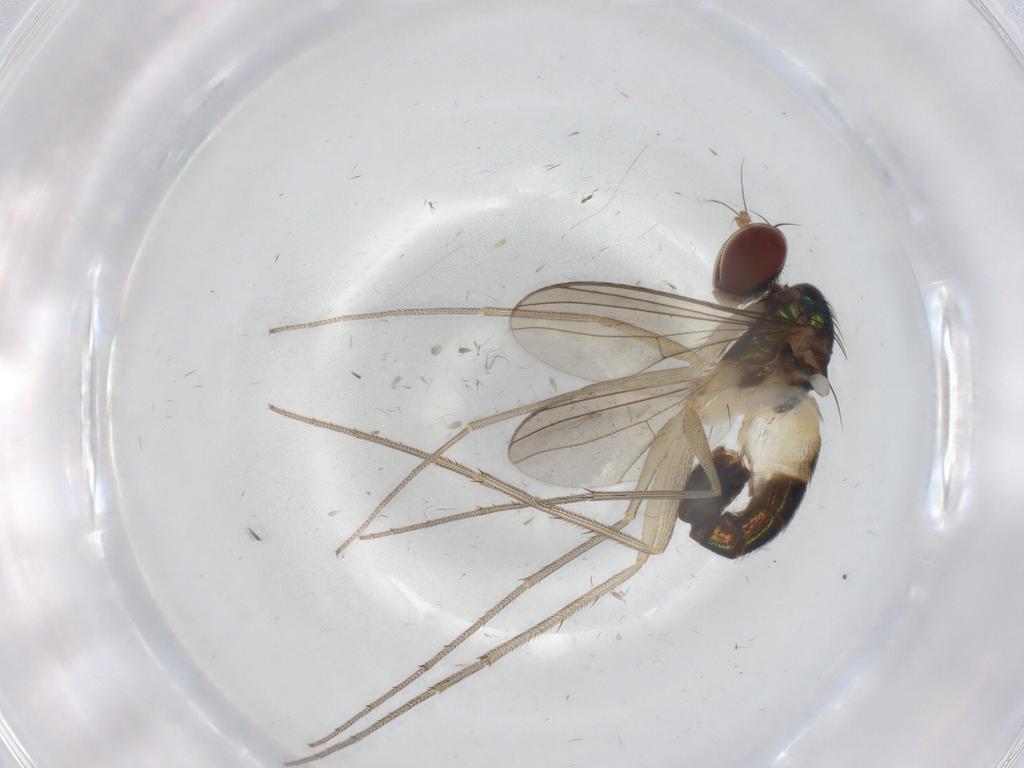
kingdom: Animalia
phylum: Arthropoda
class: Insecta
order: Diptera
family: Dolichopodidae
